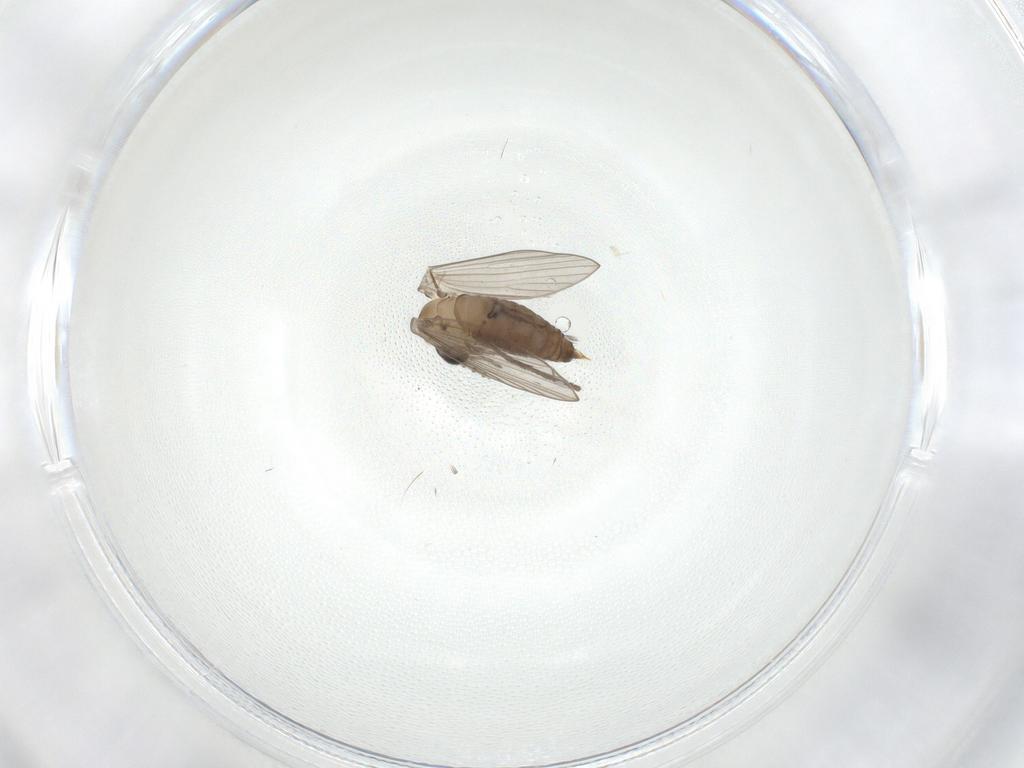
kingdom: Animalia
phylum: Arthropoda
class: Insecta
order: Diptera
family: Psychodidae
